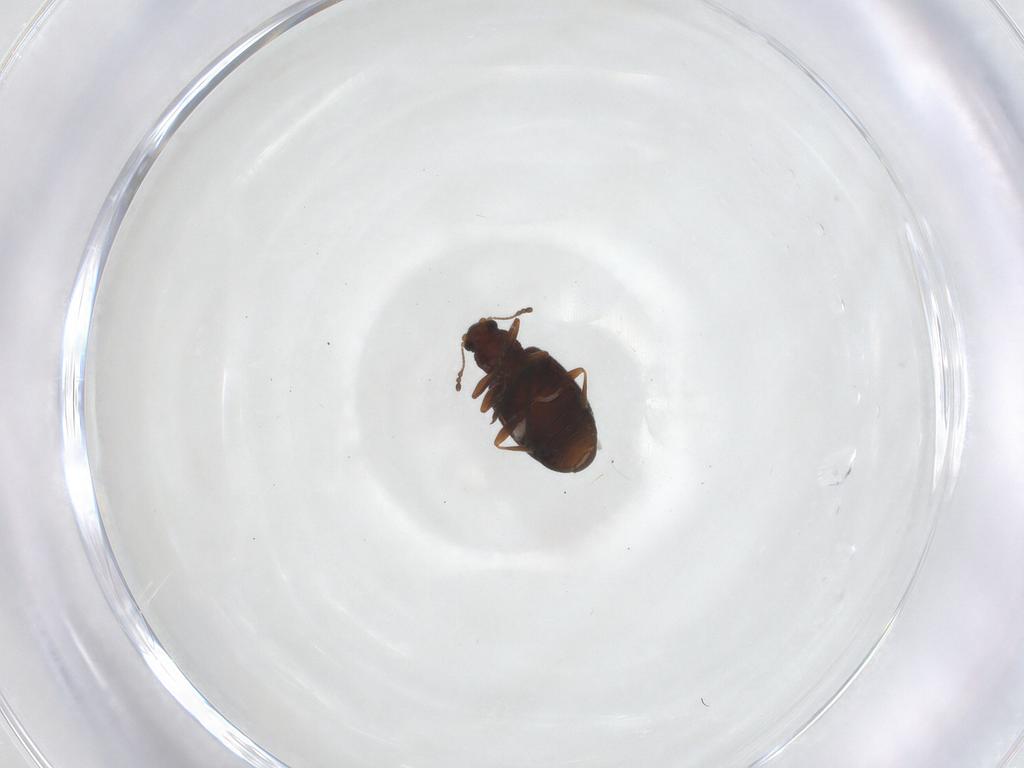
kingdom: Animalia
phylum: Arthropoda
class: Insecta
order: Coleoptera
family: Latridiidae
